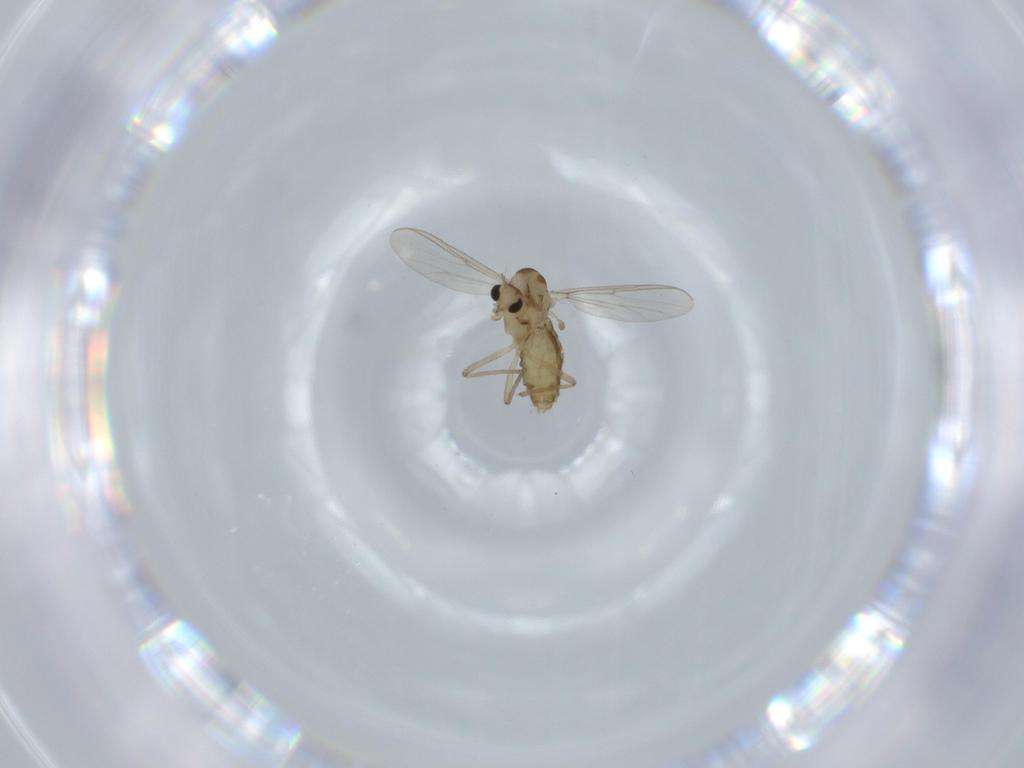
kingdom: Animalia
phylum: Arthropoda
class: Insecta
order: Diptera
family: Chironomidae
